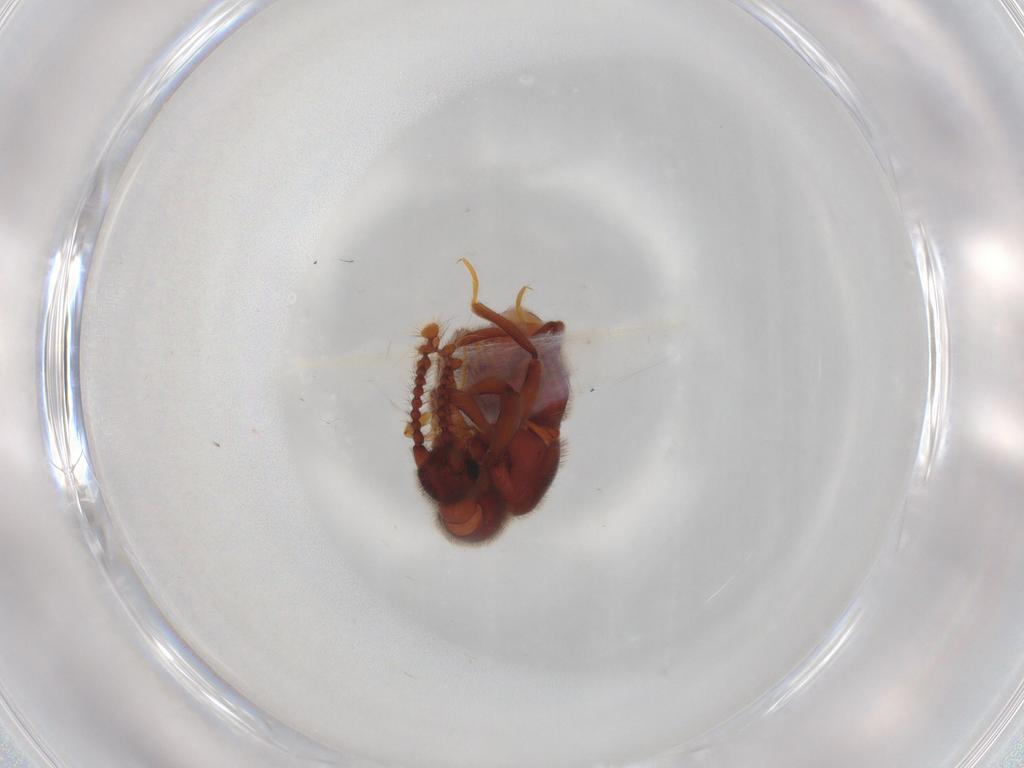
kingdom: Animalia
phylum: Arthropoda
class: Insecta
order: Coleoptera
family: Staphylinidae
